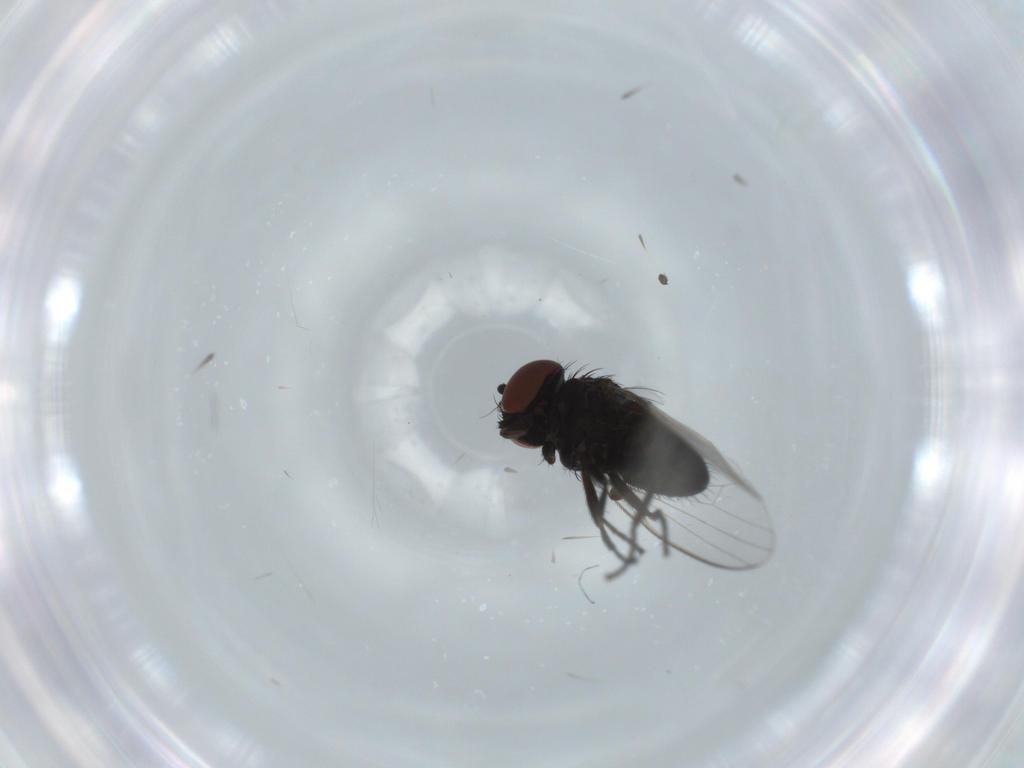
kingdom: Animalia
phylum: Arthropoda
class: Insecta
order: Diptera
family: Milichiidae
